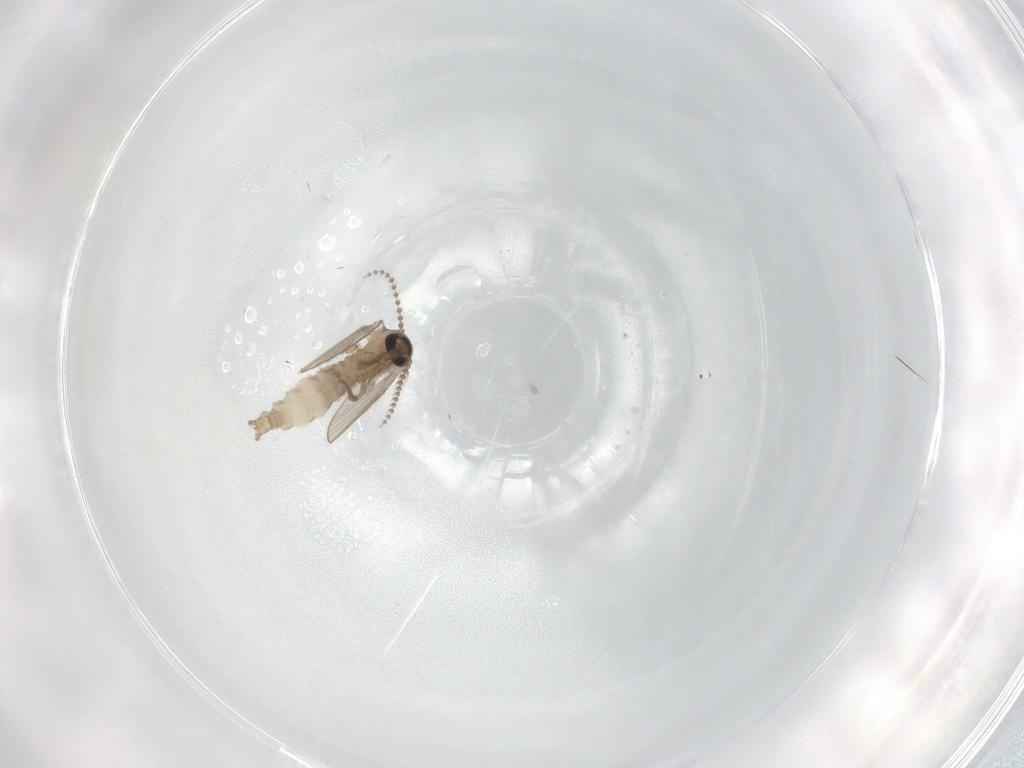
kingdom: Animalia
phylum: Arthropoda
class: Insecta
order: Diptera
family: Psychodidae
